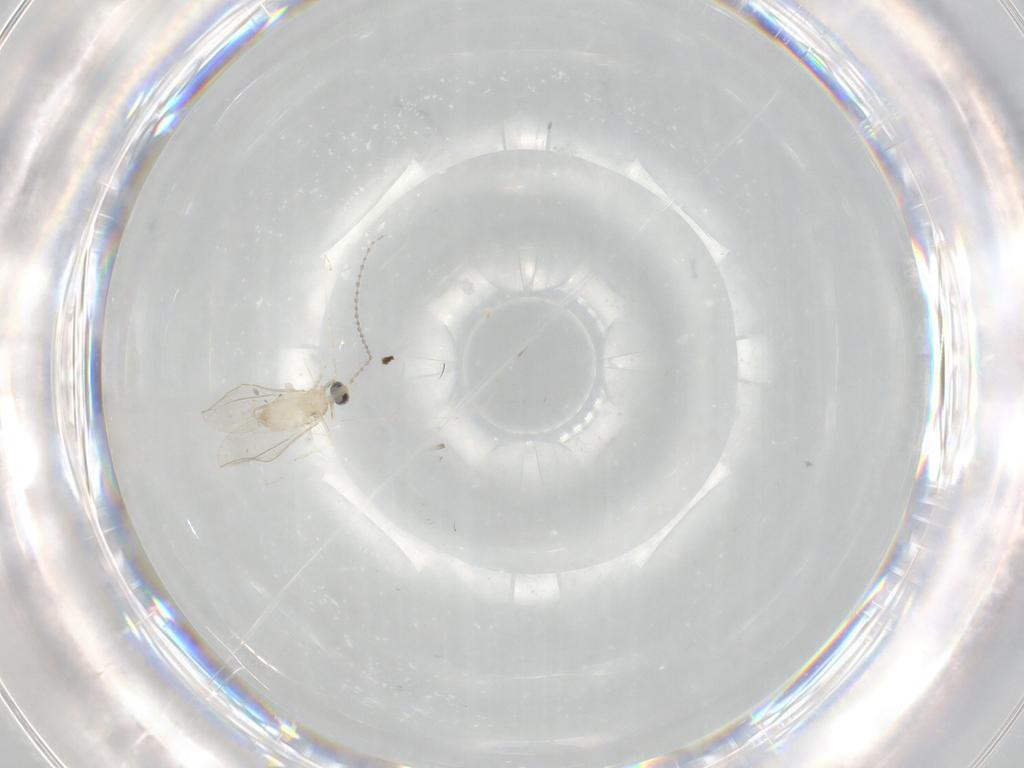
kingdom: Animalia
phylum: Arthropoda
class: Insecta
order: Diptera
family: Cecidomyiidae
